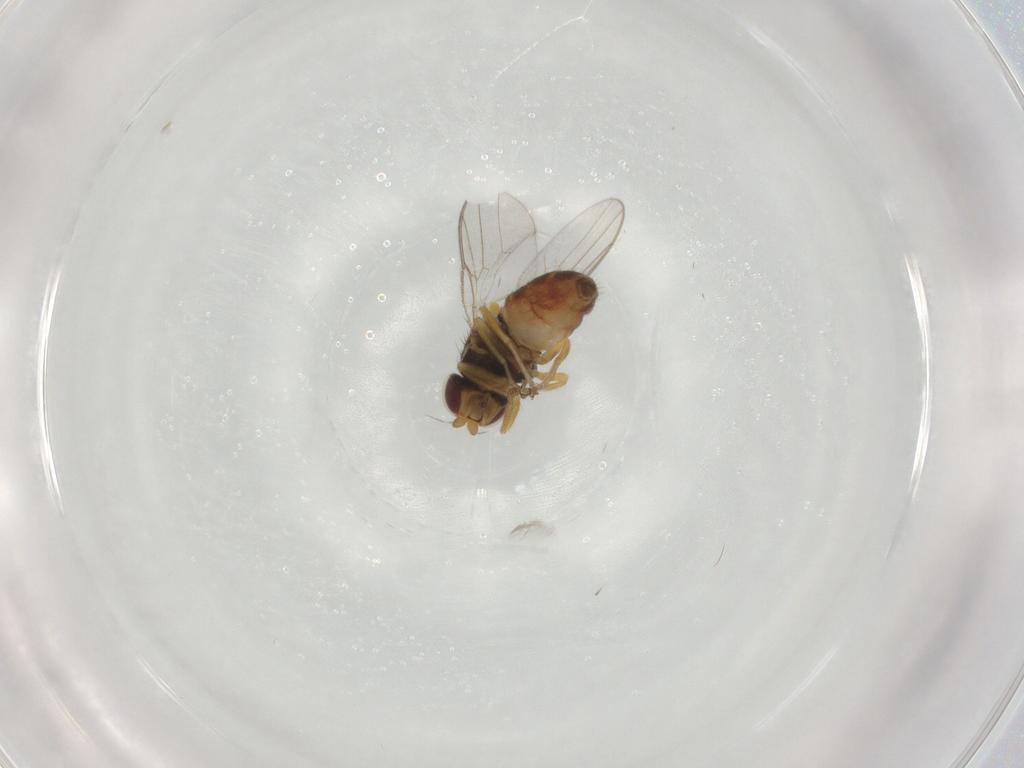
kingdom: Animalia
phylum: Arthropoda
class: Insecta
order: Diptera
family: Chloropidae
